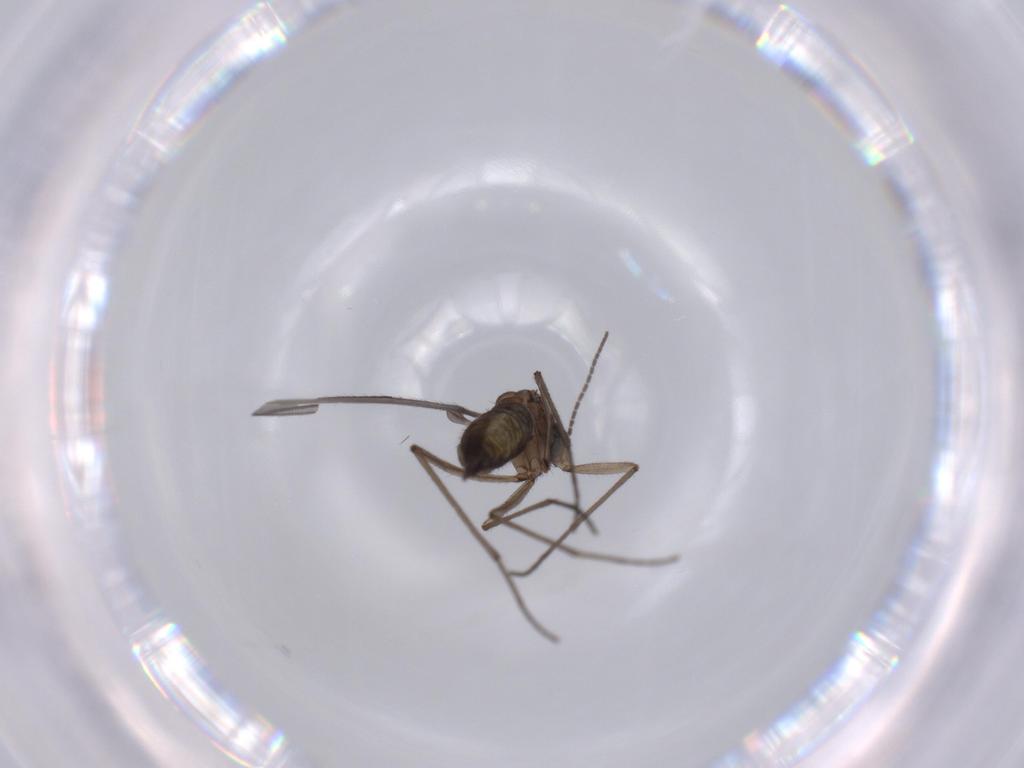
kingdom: Animalia
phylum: Arthropoda
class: Insecta
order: Diptera
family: Sciaridae
